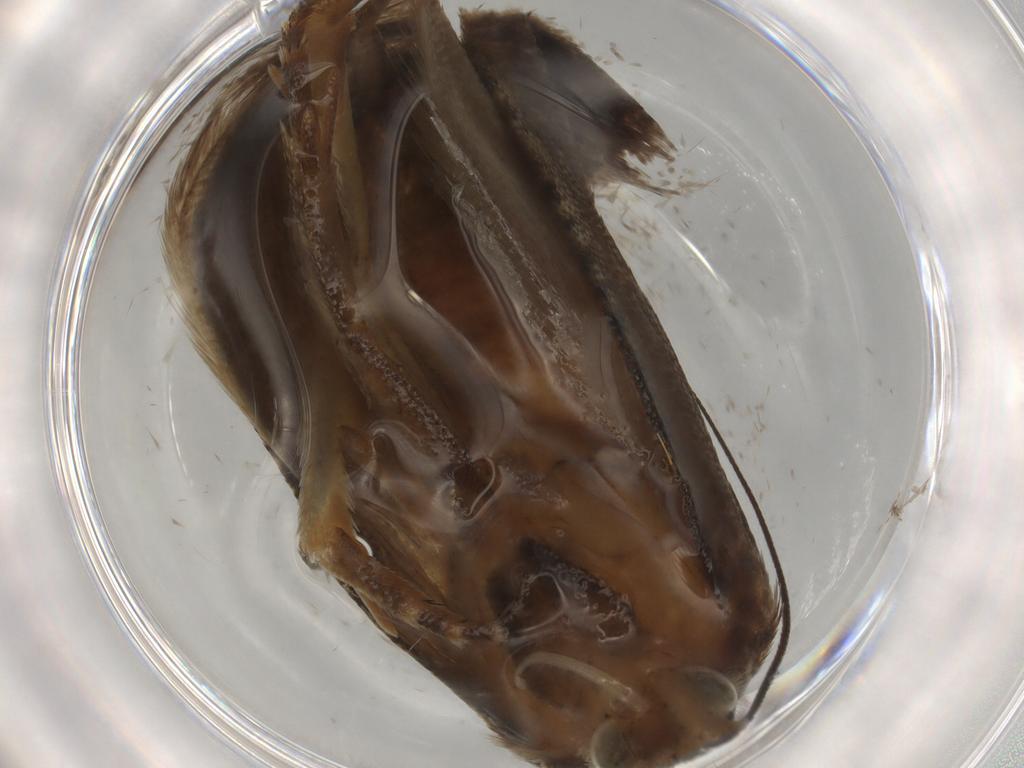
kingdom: Animalia
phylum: Arthropoda
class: Insecta
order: Lepidoptera
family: Tortricidae
